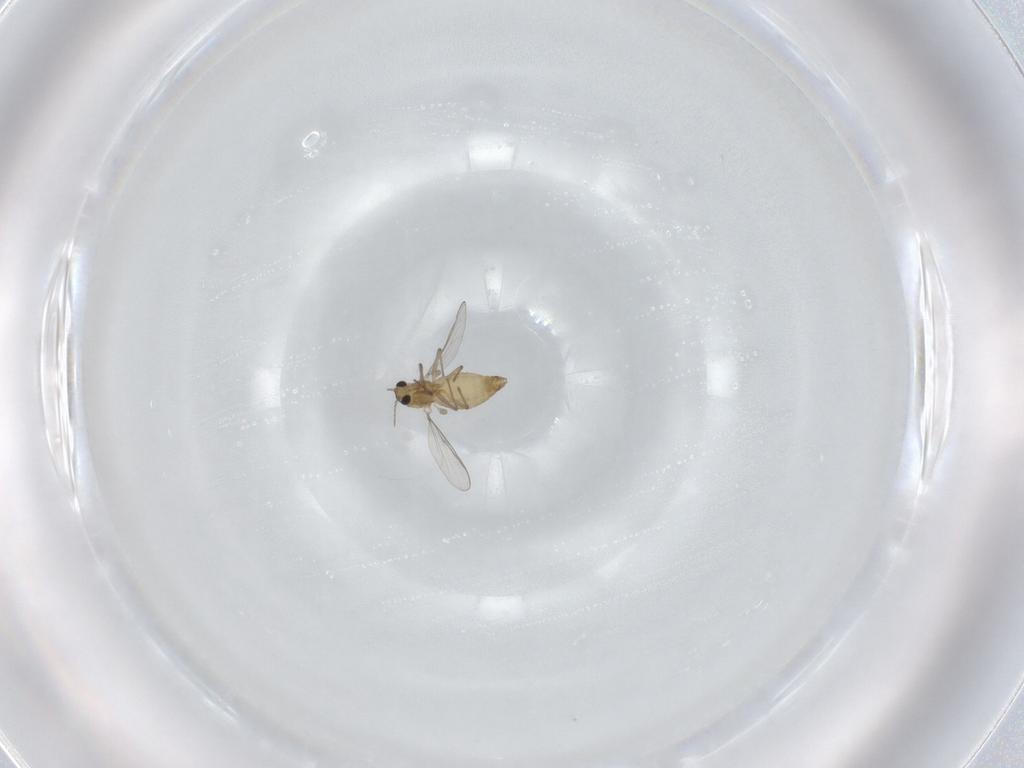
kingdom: Animalia
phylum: Arthropoda
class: Insecta
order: Diptera
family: Chironomidae
